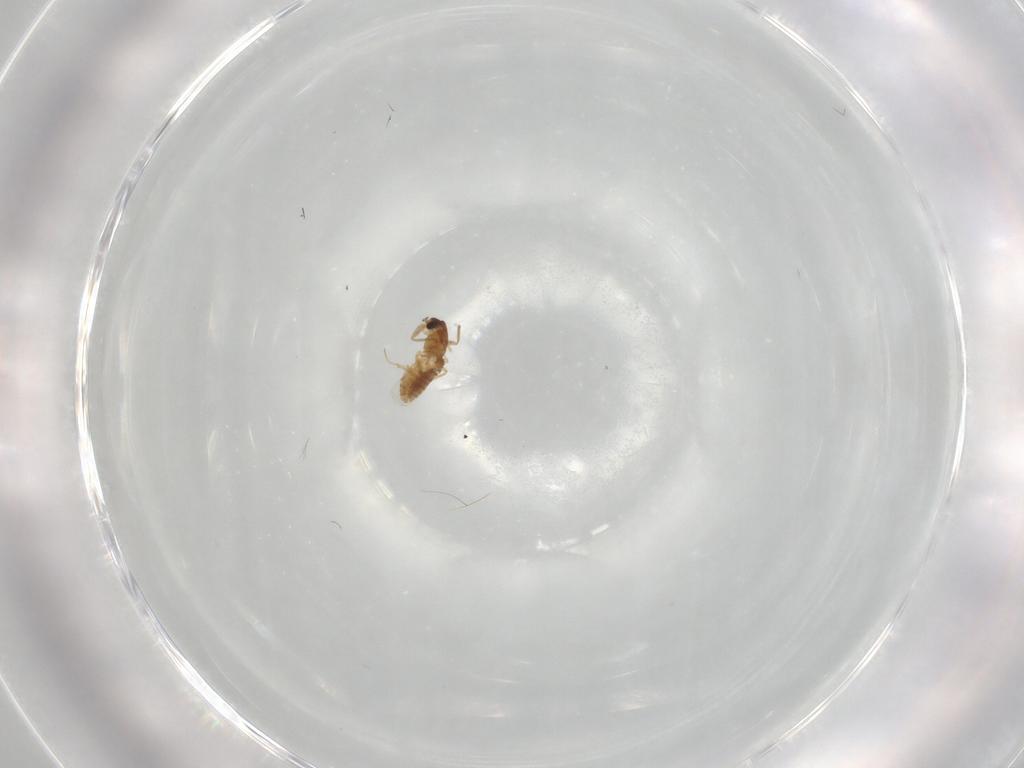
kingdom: Animalia
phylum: Arthropoda
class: Insecta
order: Diptera
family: Tabanidae
